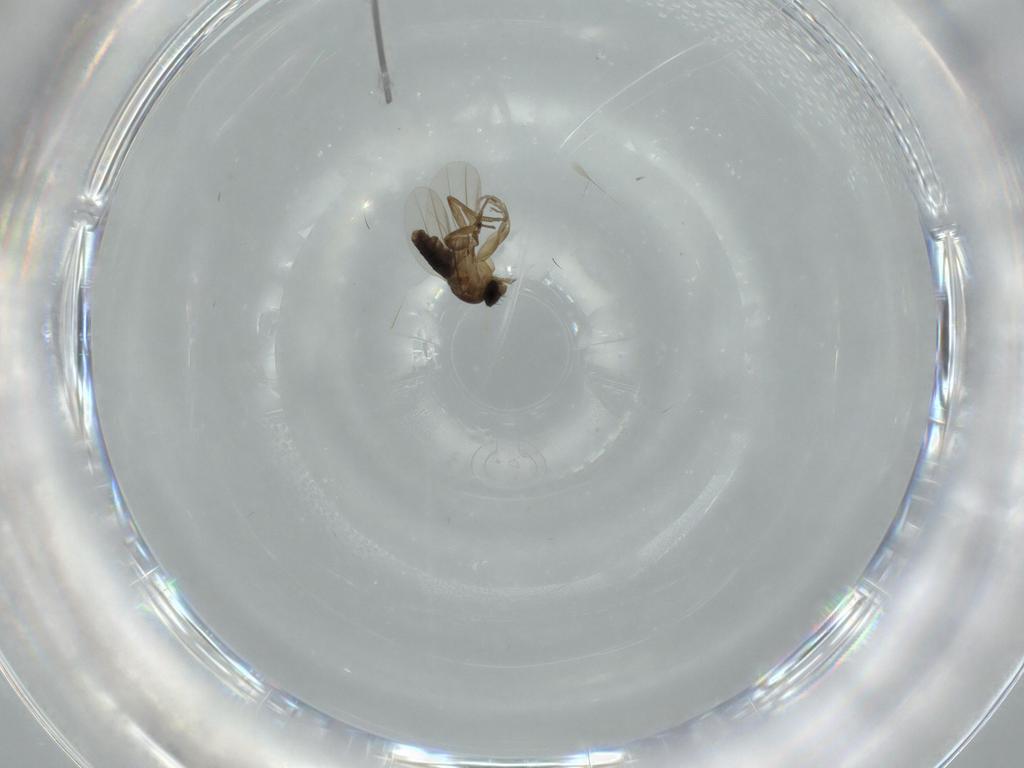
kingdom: Animalia
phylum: Arthropoda
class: Insecta
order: Diptera
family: Phoridae
